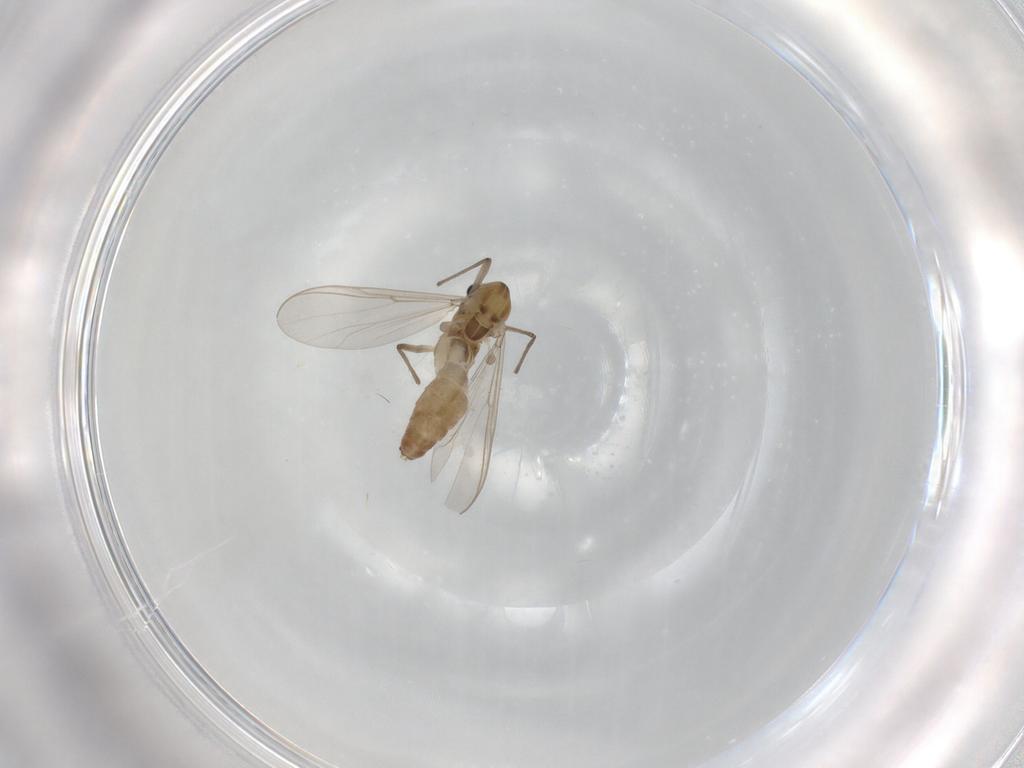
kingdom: Animalia
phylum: Arthropoda
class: Insecta
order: Diptera
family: Chironomidae
